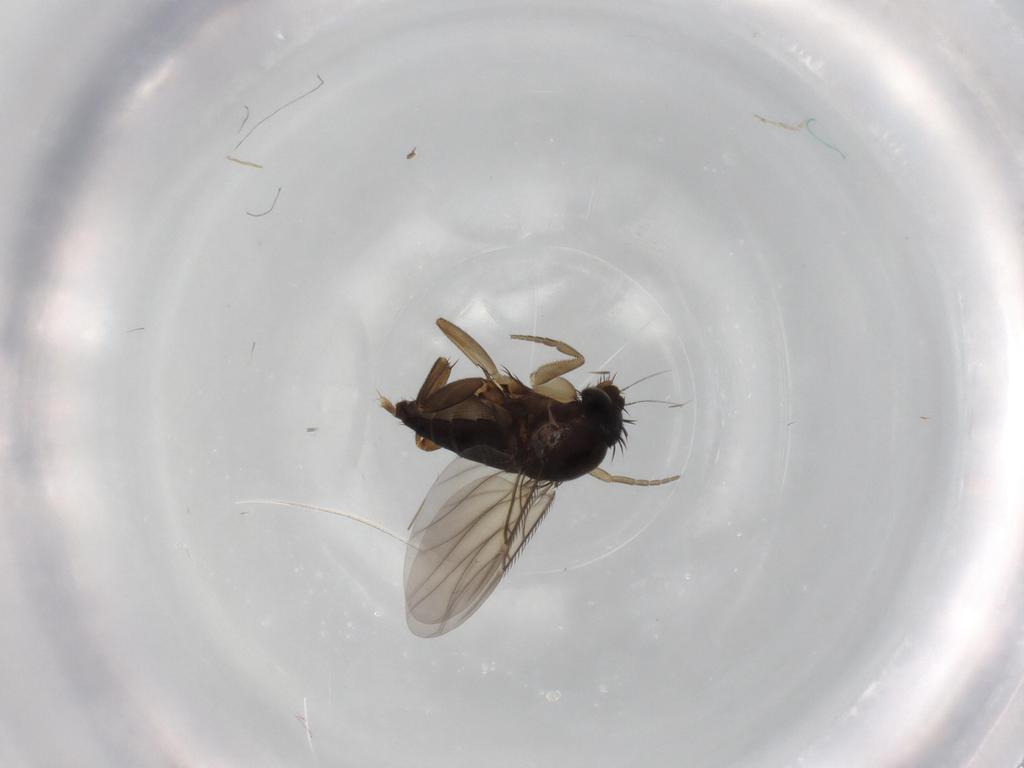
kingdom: Animalia
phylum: Arthropoda
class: Insecta
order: Diptera
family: Phoridae
